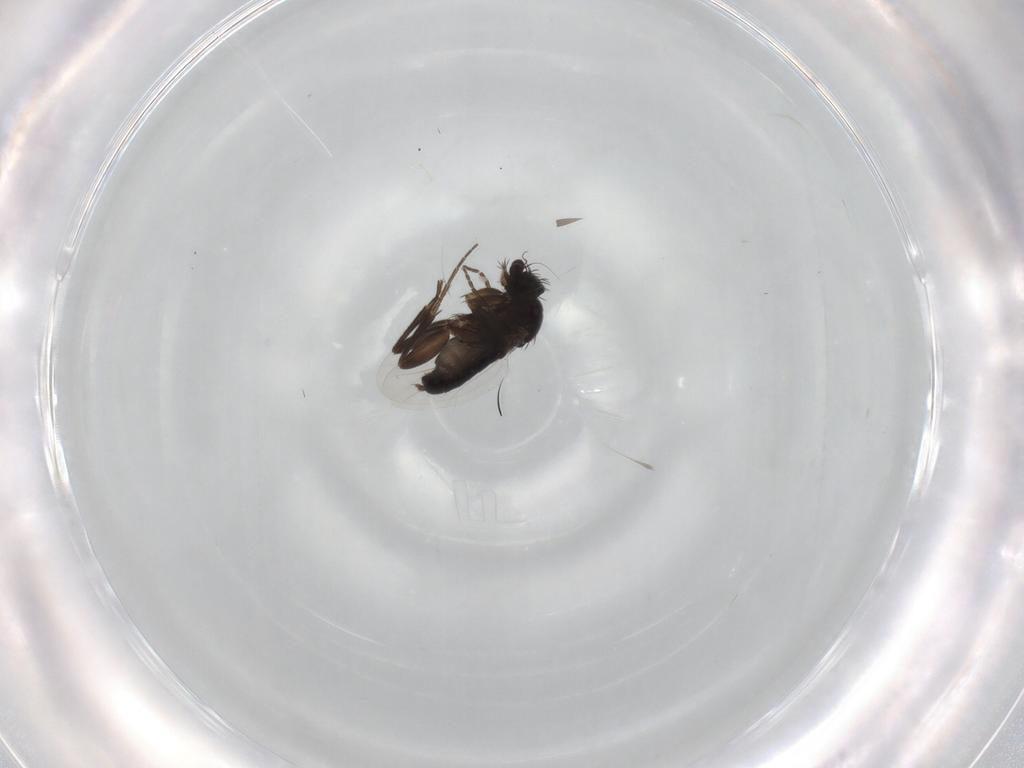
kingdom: Animalia
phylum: Arthropoda
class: Insecta
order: Diptera
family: Phoridae
